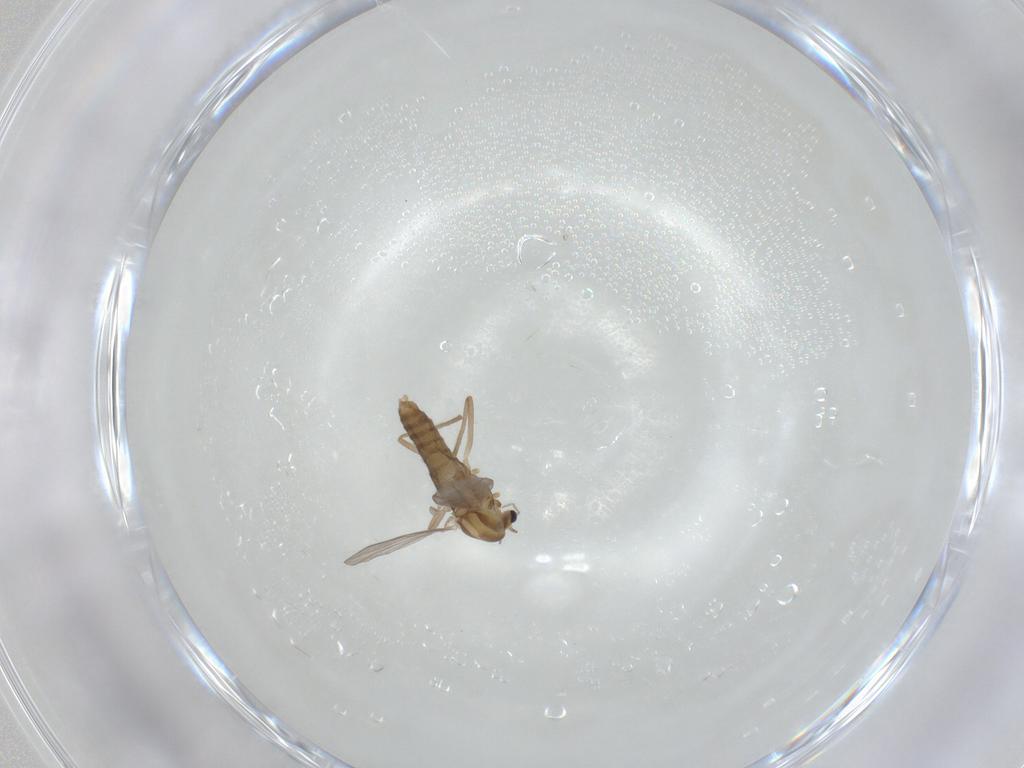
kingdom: Animalia
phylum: Arthropoda
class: Insecta
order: Diptera
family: Chironomidae
